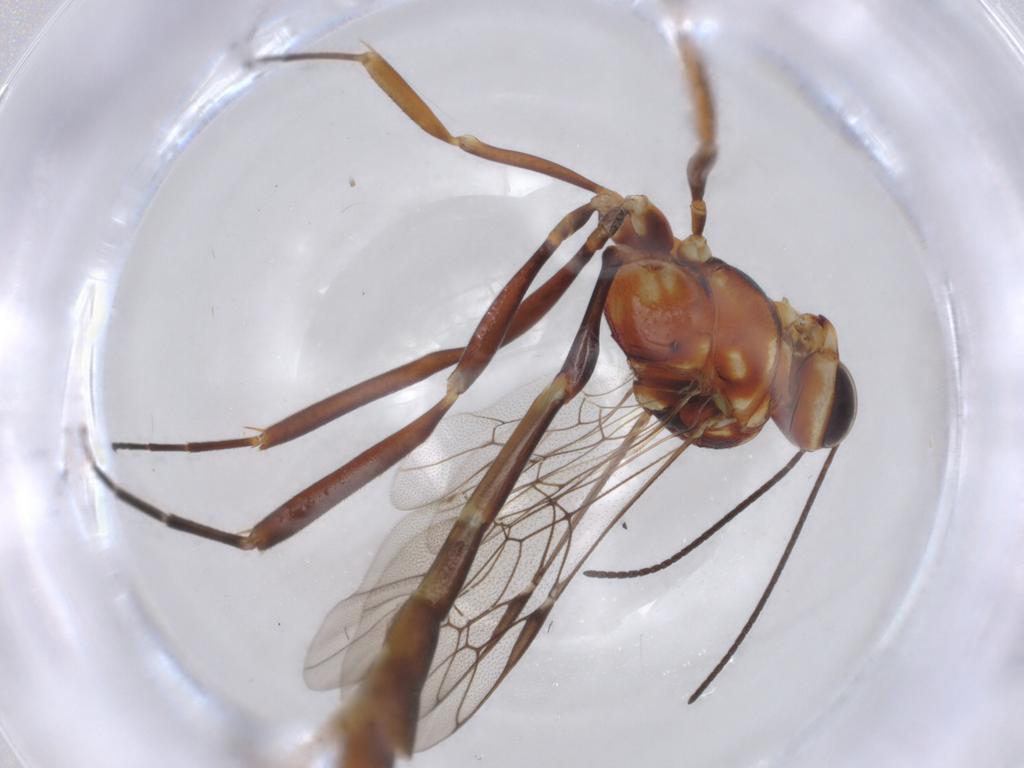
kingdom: Animalia
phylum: Arthropoda
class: Insecta
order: Hymenoptera
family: Ichneumonidae
